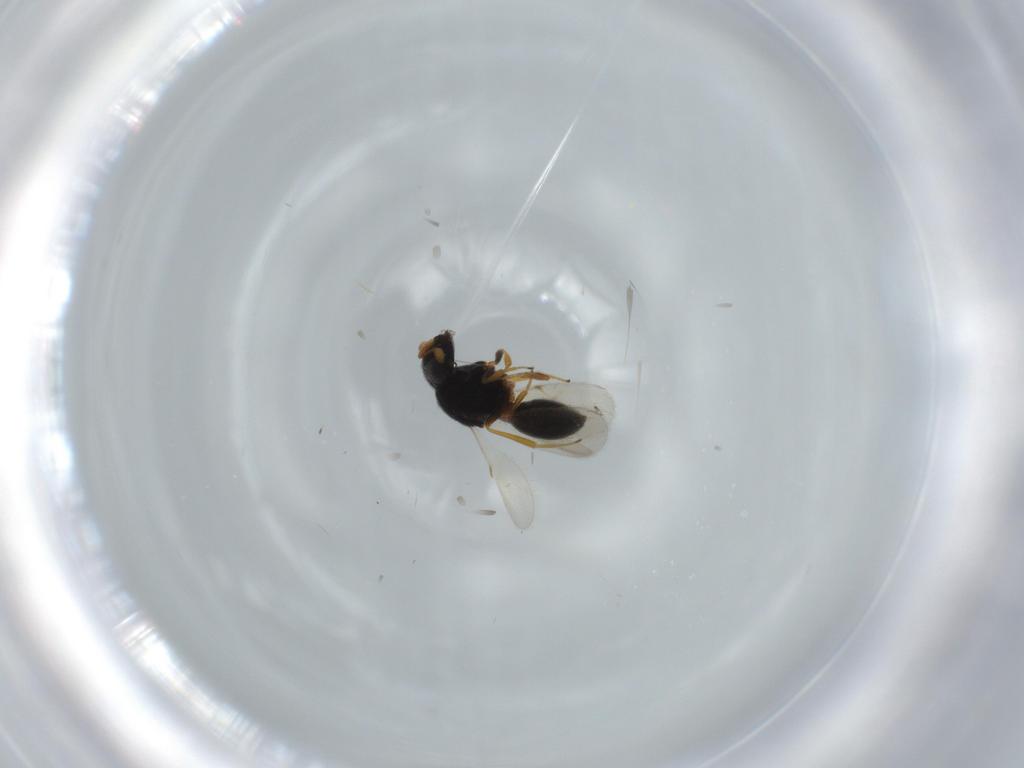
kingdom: Animalia
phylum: Arthropoda
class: Insecta
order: Hymenoptera
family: Scelionidae
